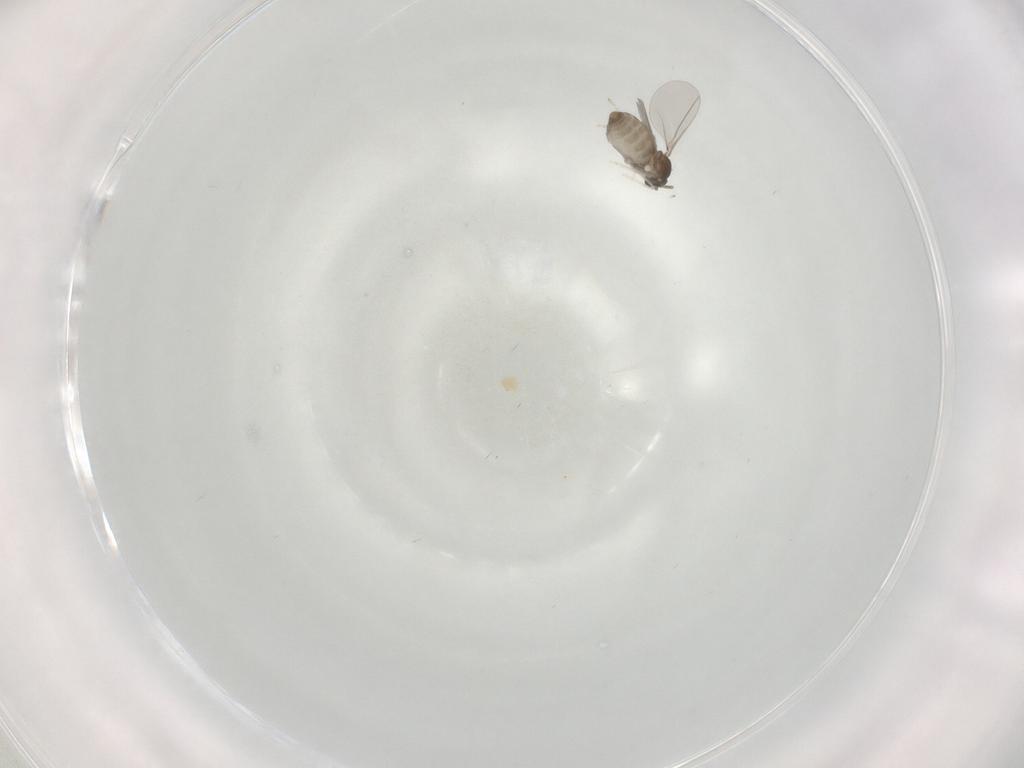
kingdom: Animalia
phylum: Arthropoda
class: Insecta
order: Diptera
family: Cecidomyiidae
